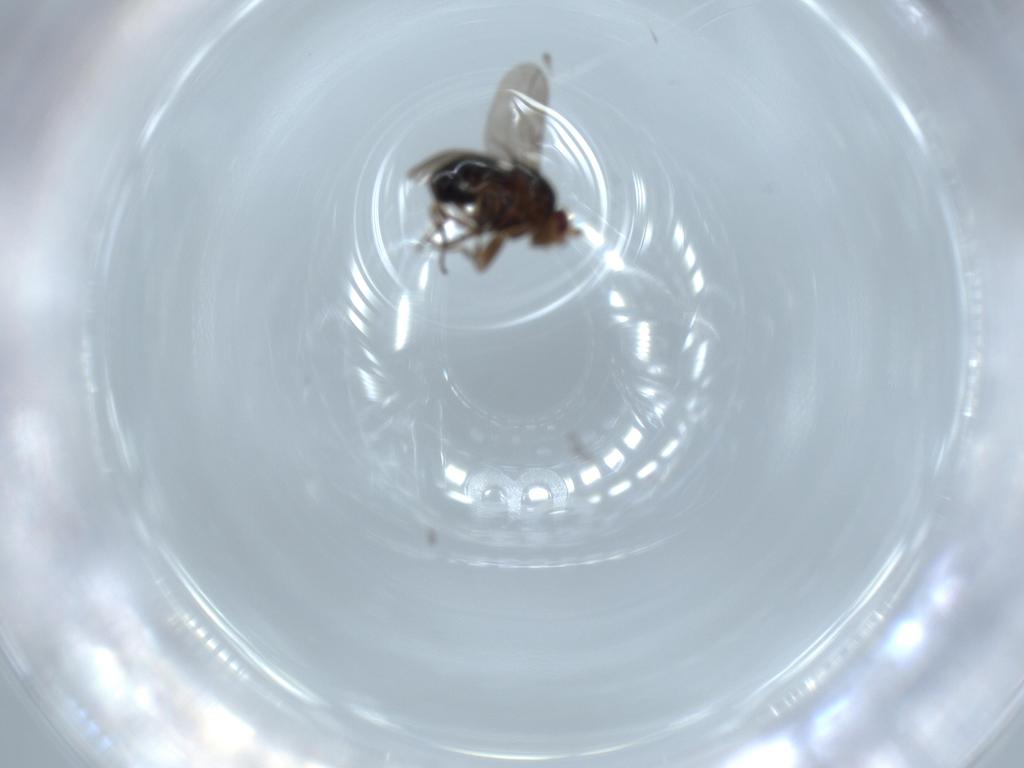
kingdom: Animalia
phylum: Arthropoda
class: Insecta
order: Diptera
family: Sphaeroceridae
